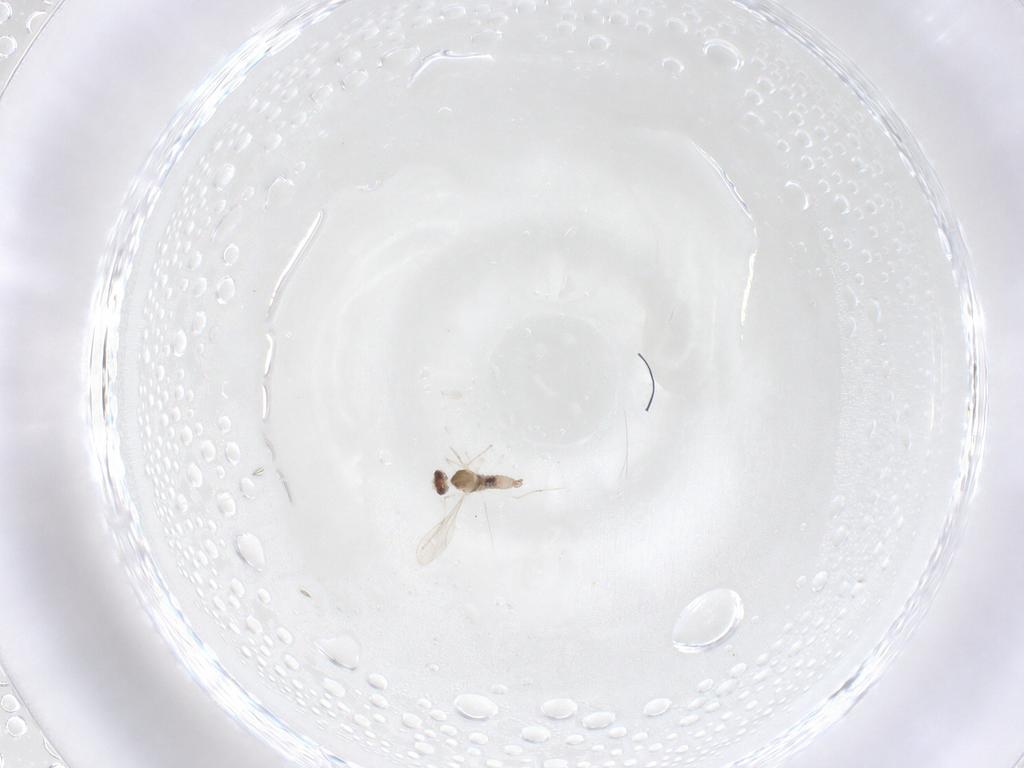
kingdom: Animalia
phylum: Arthropoda
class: Insecta
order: Diptera
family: Cecidomyiidae
